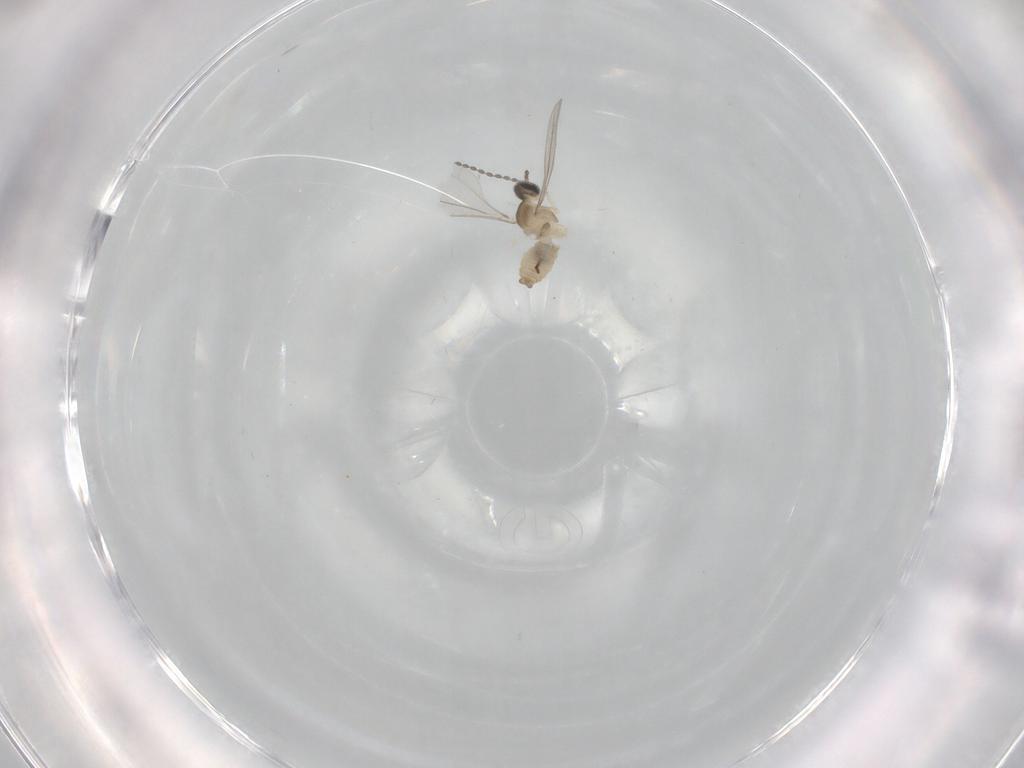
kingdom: Animalia
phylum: Arthropoda
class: Insecta
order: Diptera
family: Cecidomyiidae
